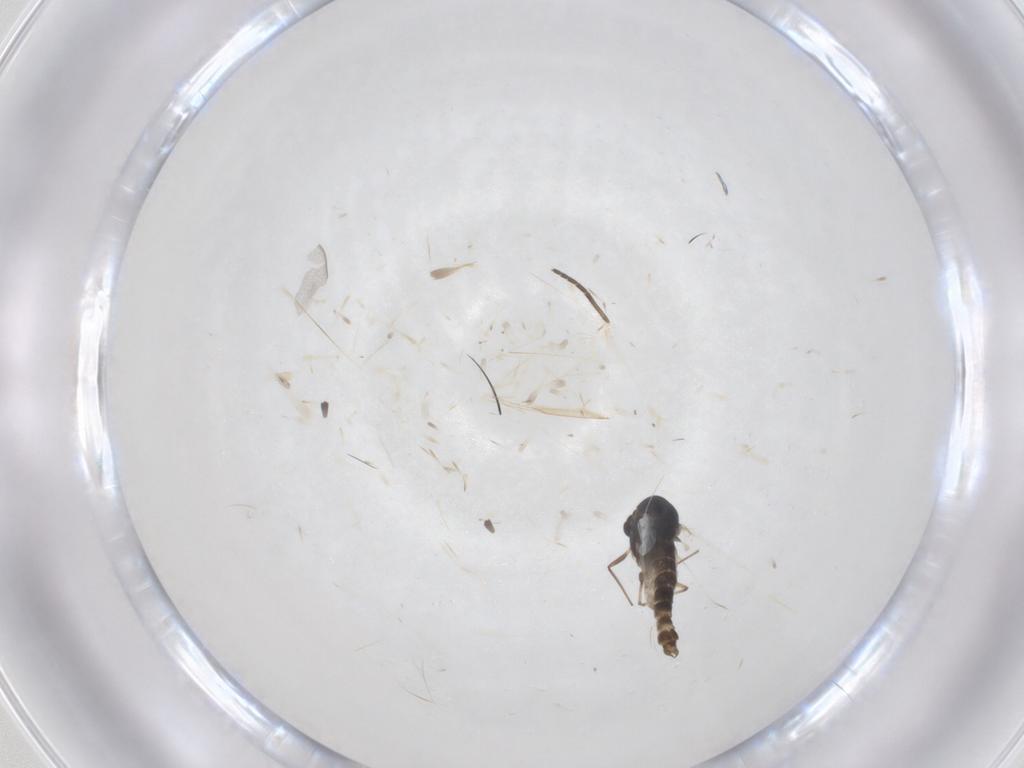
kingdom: Animalia
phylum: Arthropoda
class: Insecta
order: Diptera
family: Chironomidae
